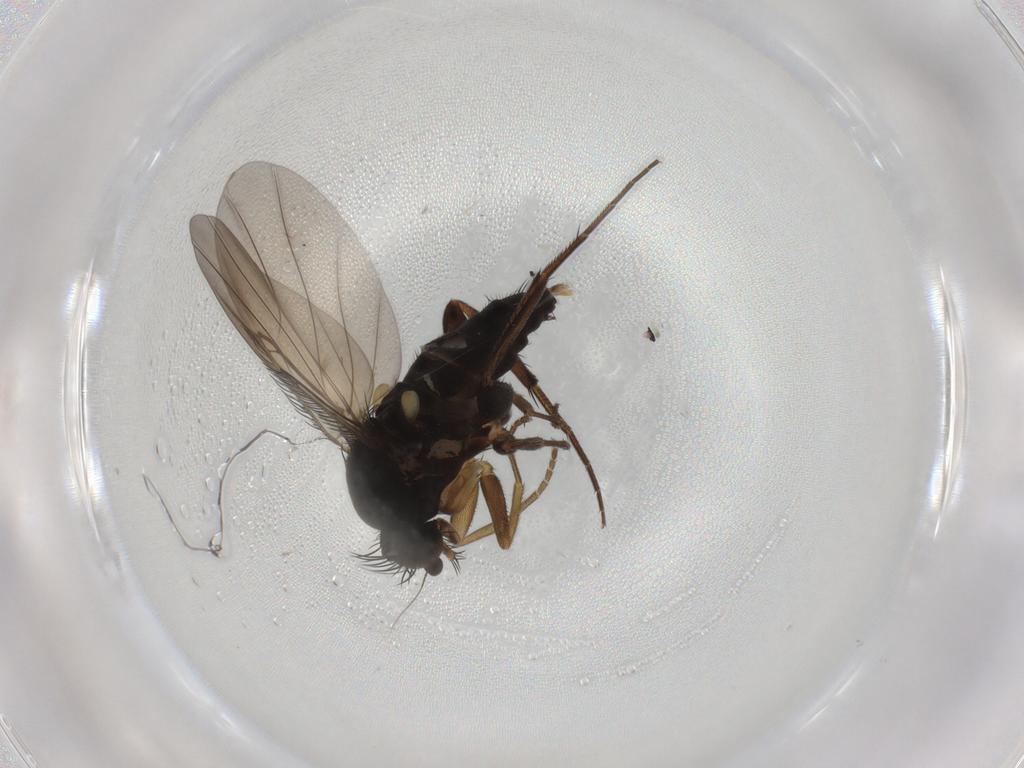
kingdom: Animalia
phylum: Arthropoda
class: Insecta
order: Diptera
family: Phoridae
